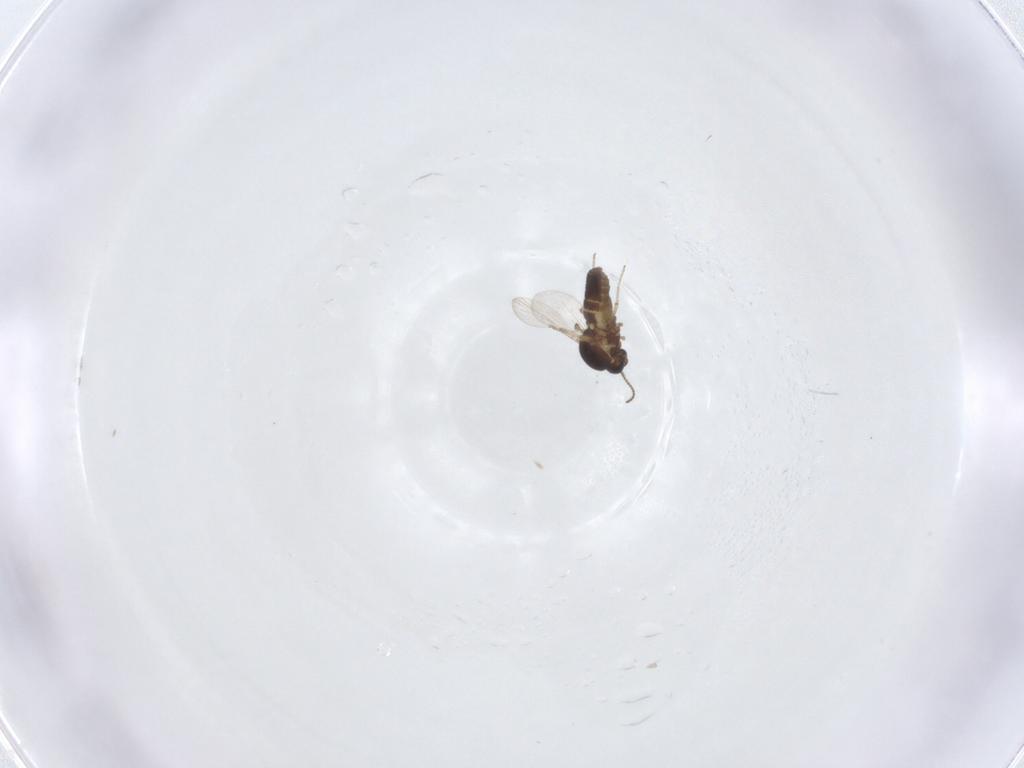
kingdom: Animalia
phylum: Arthropoda
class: Insecta
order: Diptera
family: Ceratopogonidae
